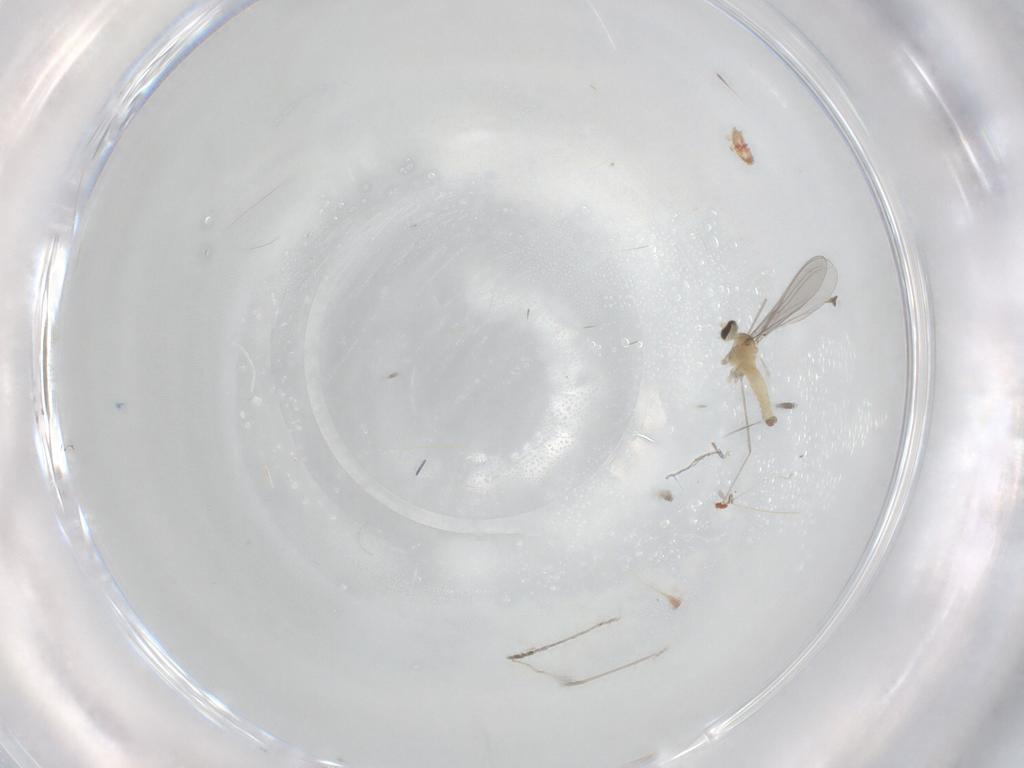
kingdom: Animalia
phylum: Arthropoda
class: Insecta
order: Diptera
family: Cecidomyiidae
